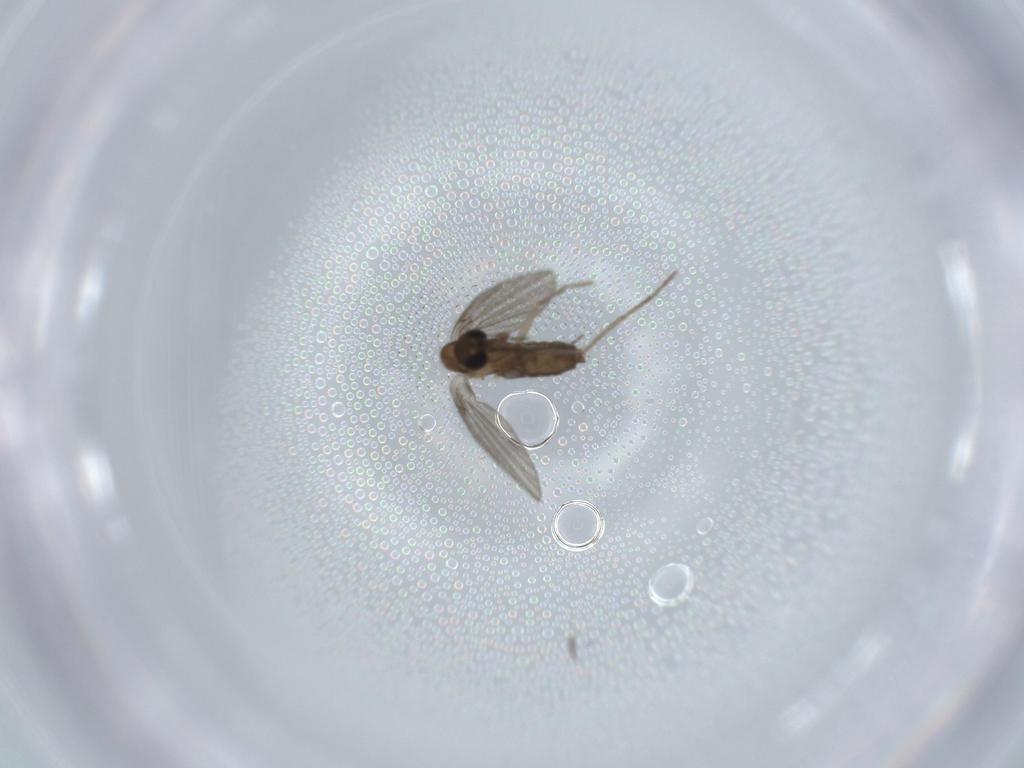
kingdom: Animalia
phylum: Arthropoda
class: Insecta
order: Diptera
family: Psychodidae
